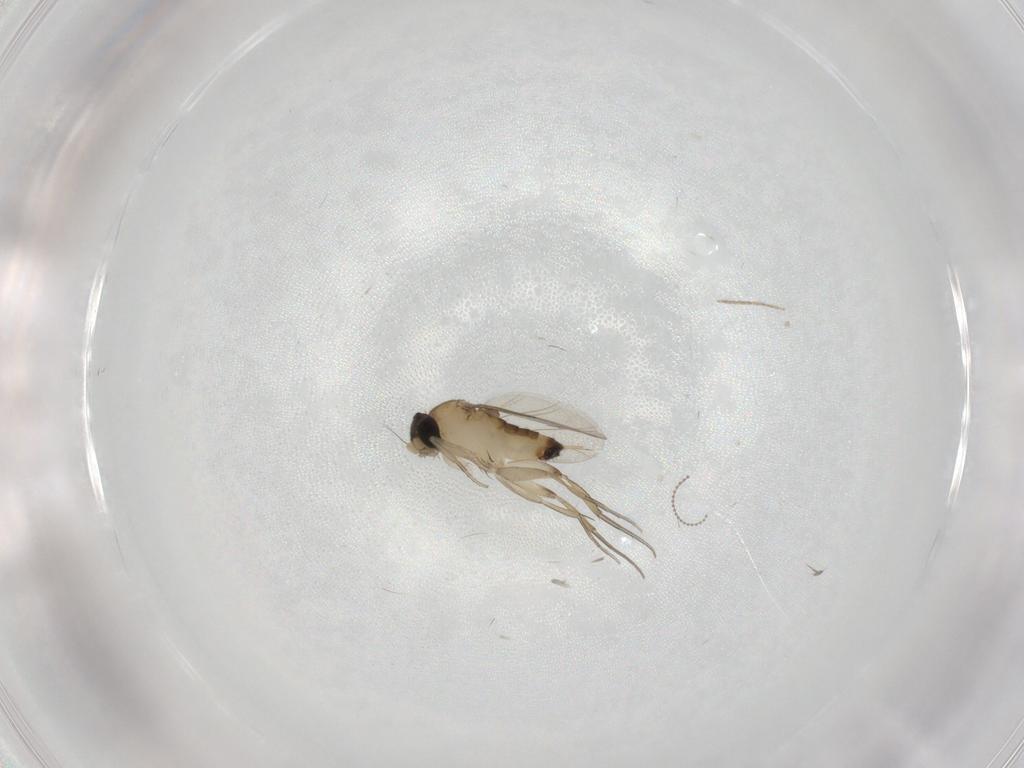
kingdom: Animalia
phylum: Arthropoda
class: Insecta
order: Diptera
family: Phoridae
